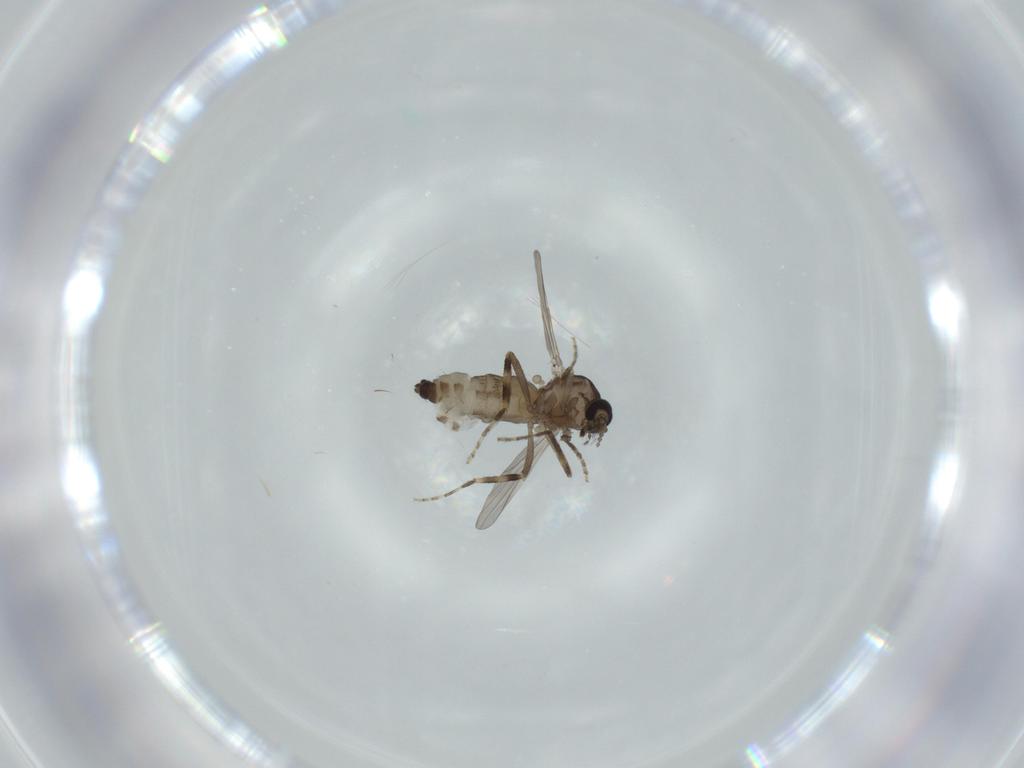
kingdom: Animalia
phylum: Arthropoda
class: Insecta
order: Diptera
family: Ceratopogonidae
